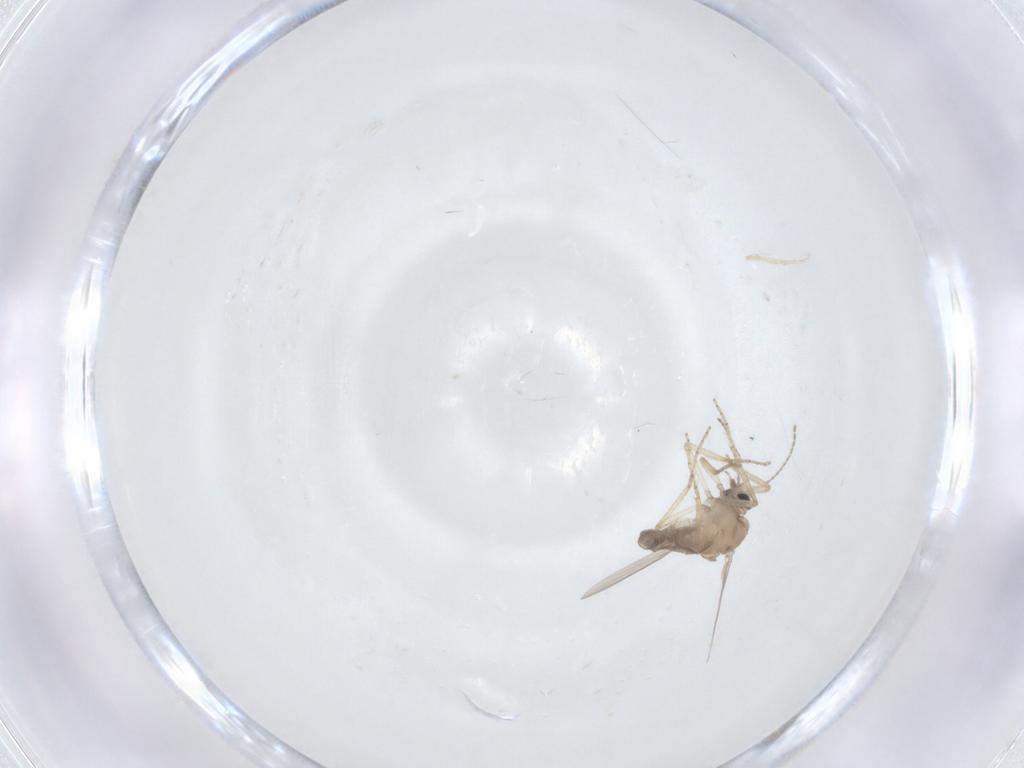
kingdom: Animalia
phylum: Arthropoda
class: Insecta
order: Diptera
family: Ceratopogonidae
